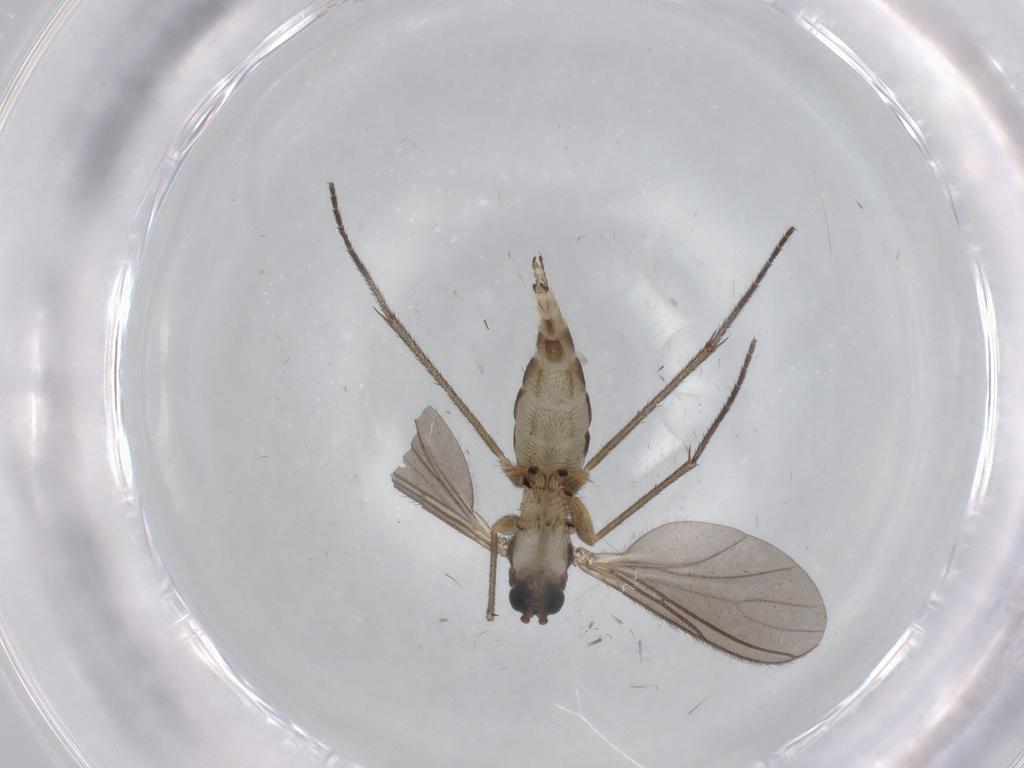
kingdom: Animalia
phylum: Arthropoda
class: Insecta
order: Diptera
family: Sciaridae
